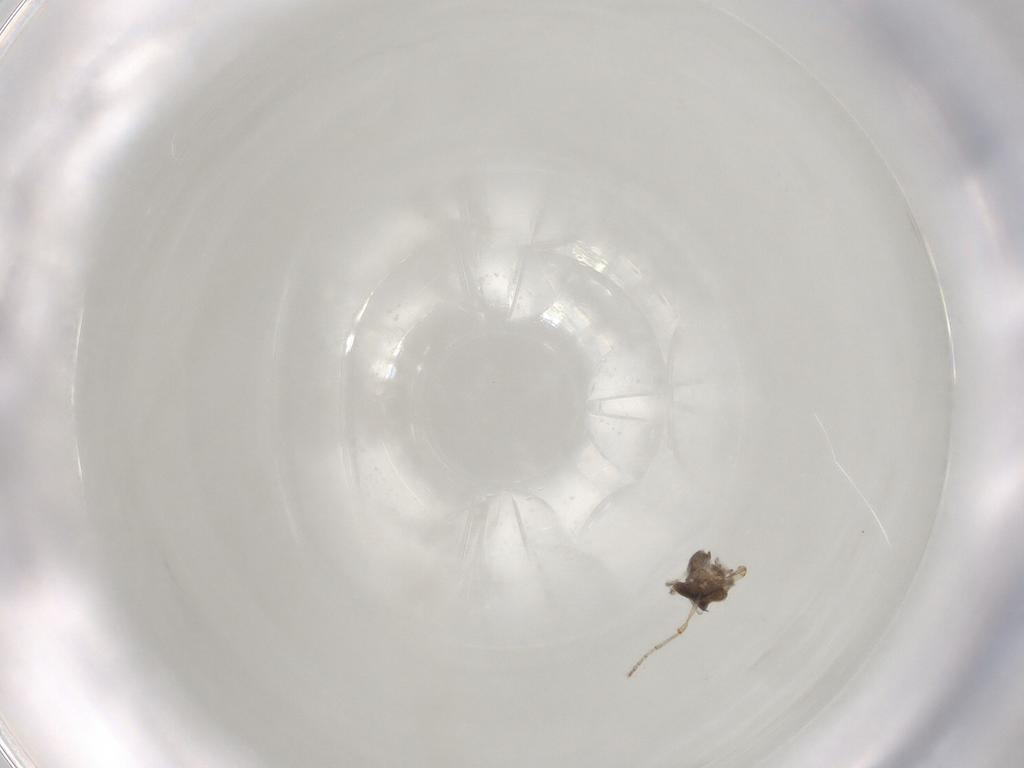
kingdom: Animalia
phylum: Arthropoda
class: Insecta
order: Diptera
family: Ceratopogonidae
